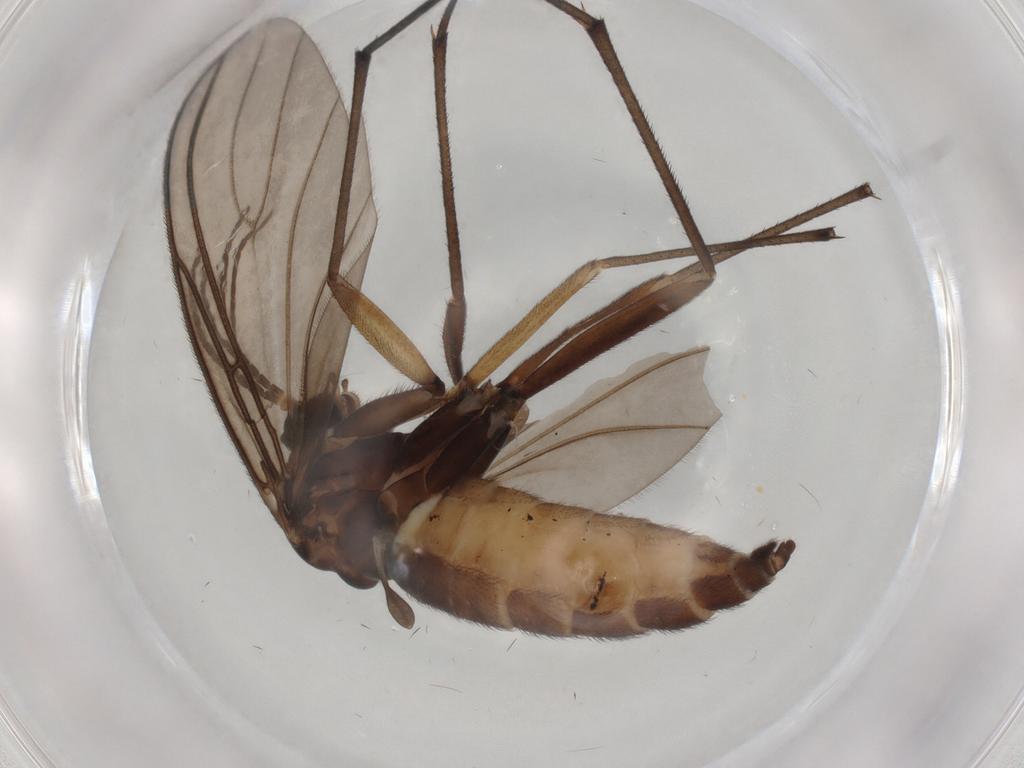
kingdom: Animalia
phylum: Arthropoda
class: Insecta
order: Diptera
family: Sciaridae
